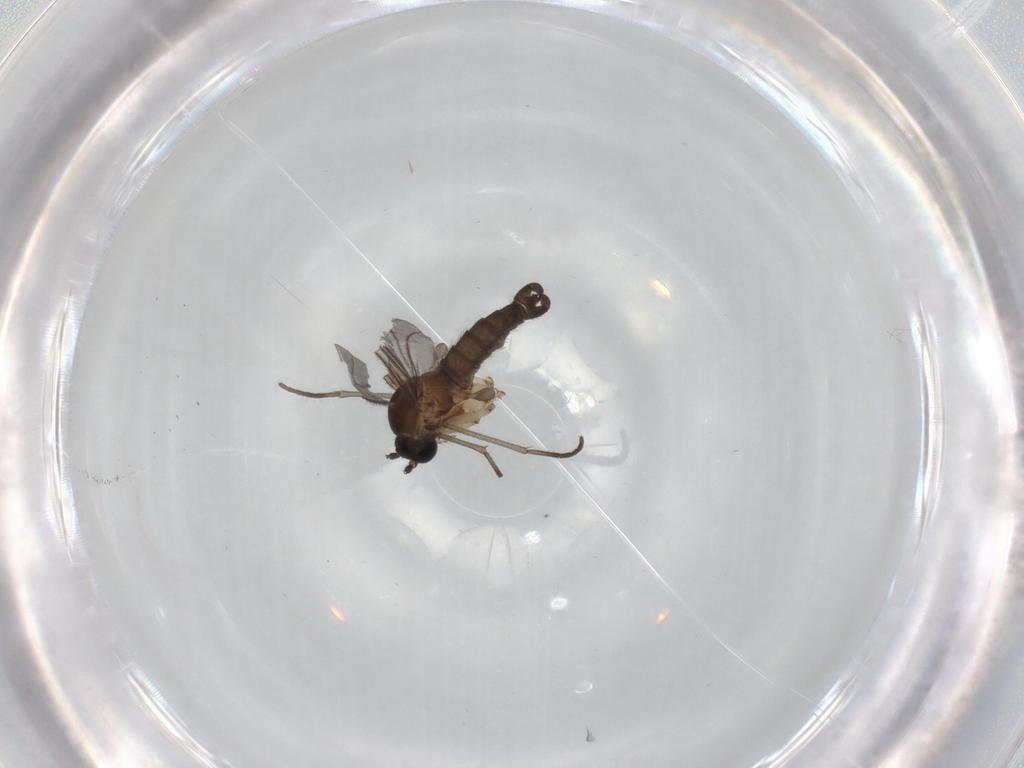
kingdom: Animalia
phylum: Arthropoda
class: Insecta
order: Diptera
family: Sciaridae
